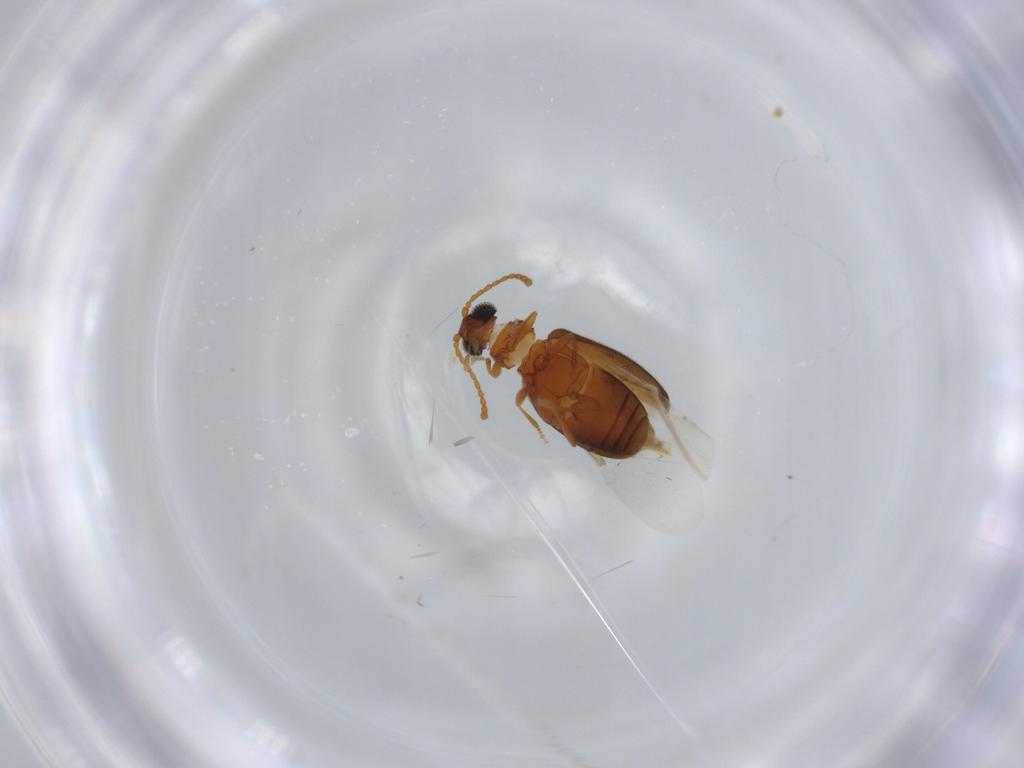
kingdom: Animalia
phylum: Arthropoda
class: Insecta
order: Coleoptera
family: Aderidae
